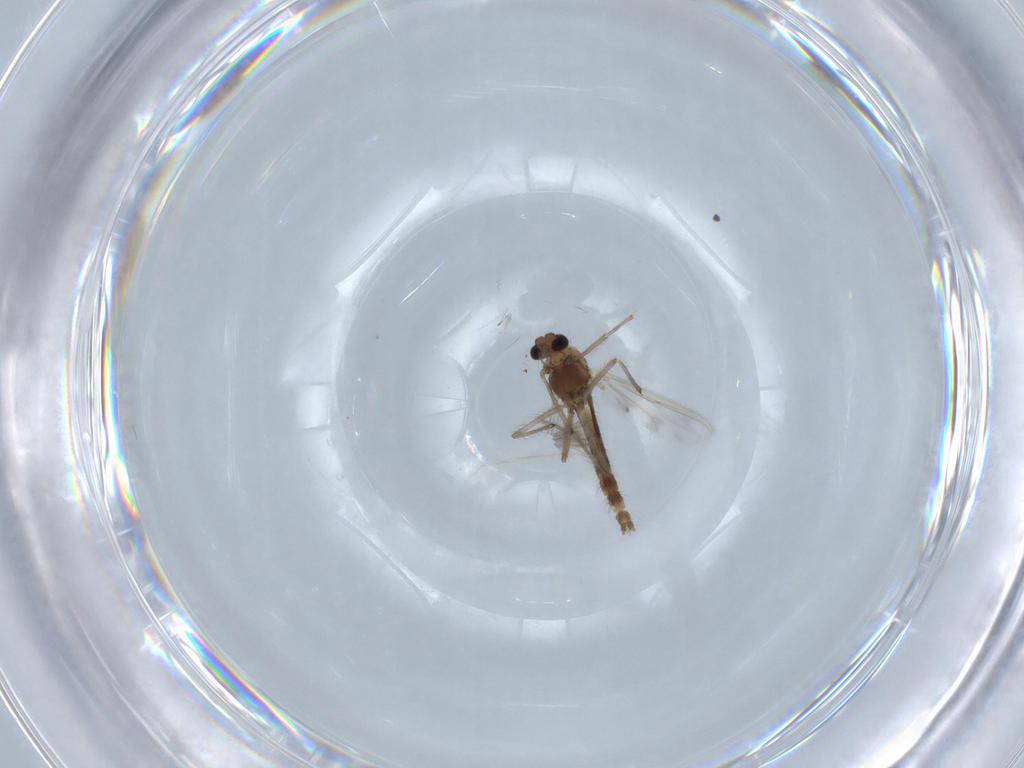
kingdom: Animalia
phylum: Arthropoda
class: Insecta
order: Diptera
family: Chironomidae
